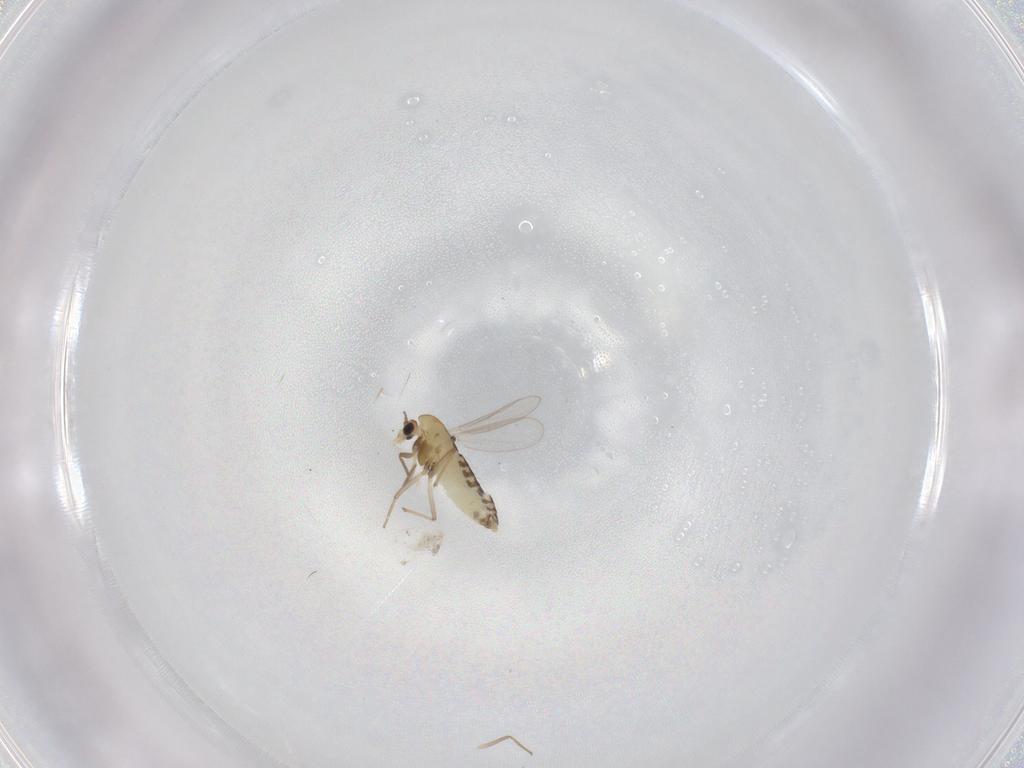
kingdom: Animalia
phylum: Arthropoda
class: Insecta
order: Diptera
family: Chironomidae
